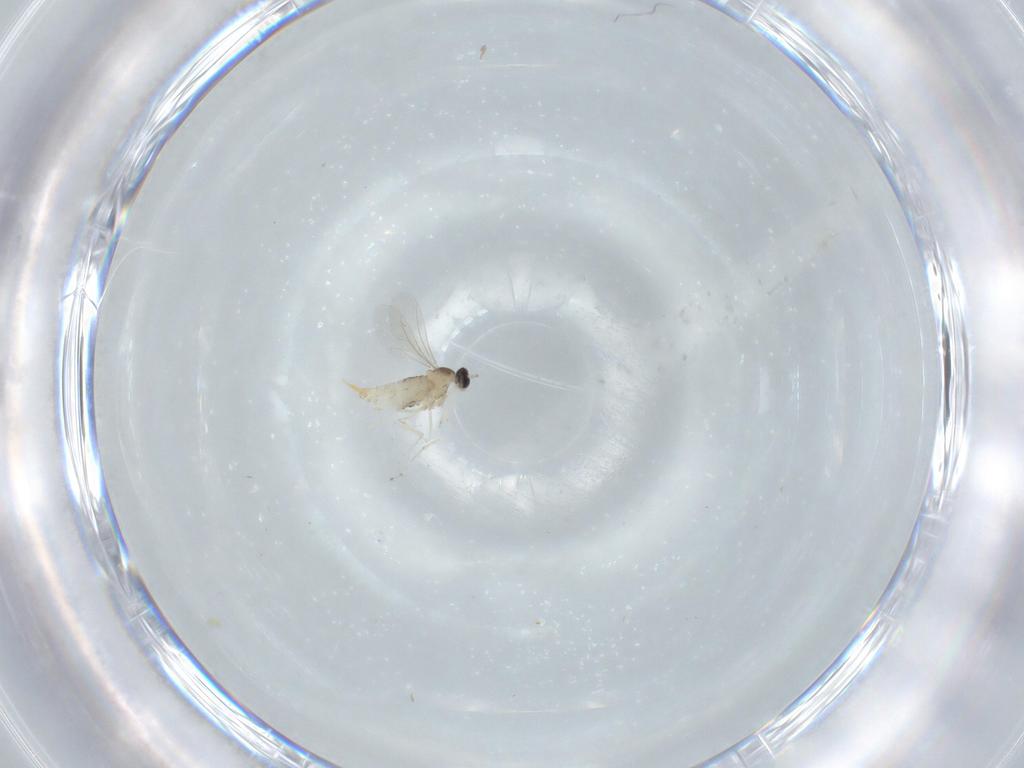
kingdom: Animalia
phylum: Arthropoda
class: Insecta
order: Diptera
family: Cecidomyiidae
